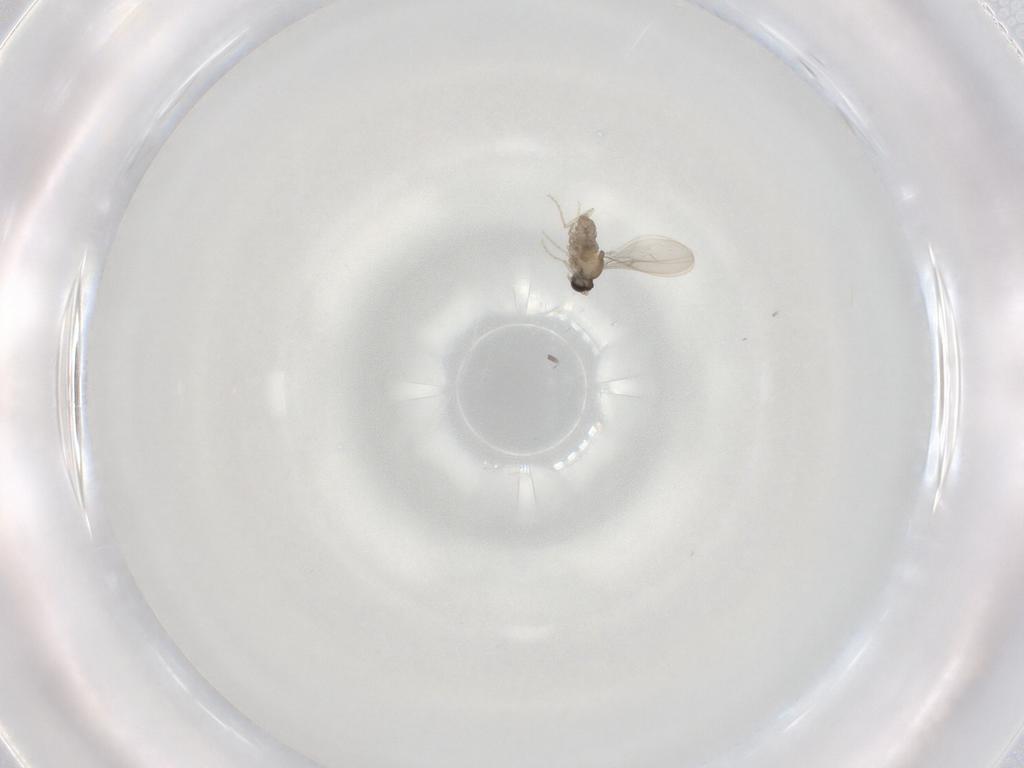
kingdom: Animalia
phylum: Arthropoda
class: Insecta
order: Diptera
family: Cecidomyiidae
